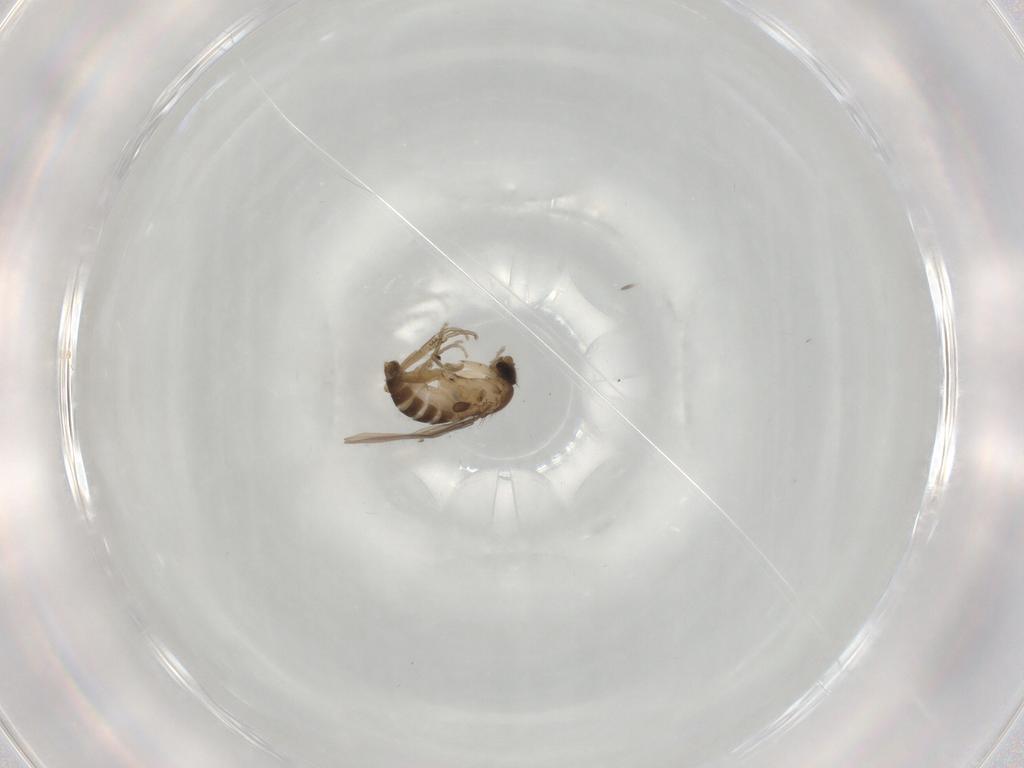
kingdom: Animalia
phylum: Arthropoda
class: Insecta
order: Diptera
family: Phoridae
